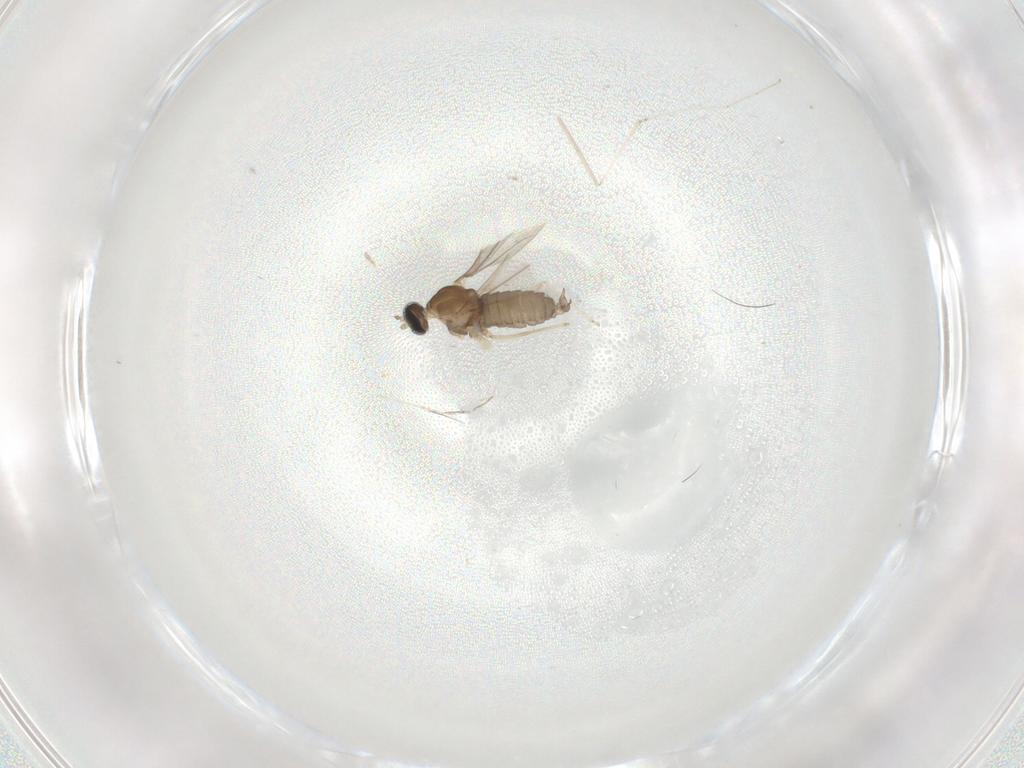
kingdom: Animalia
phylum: Arthropoda
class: Insecta
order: Diptera
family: Cecidomyiidae
